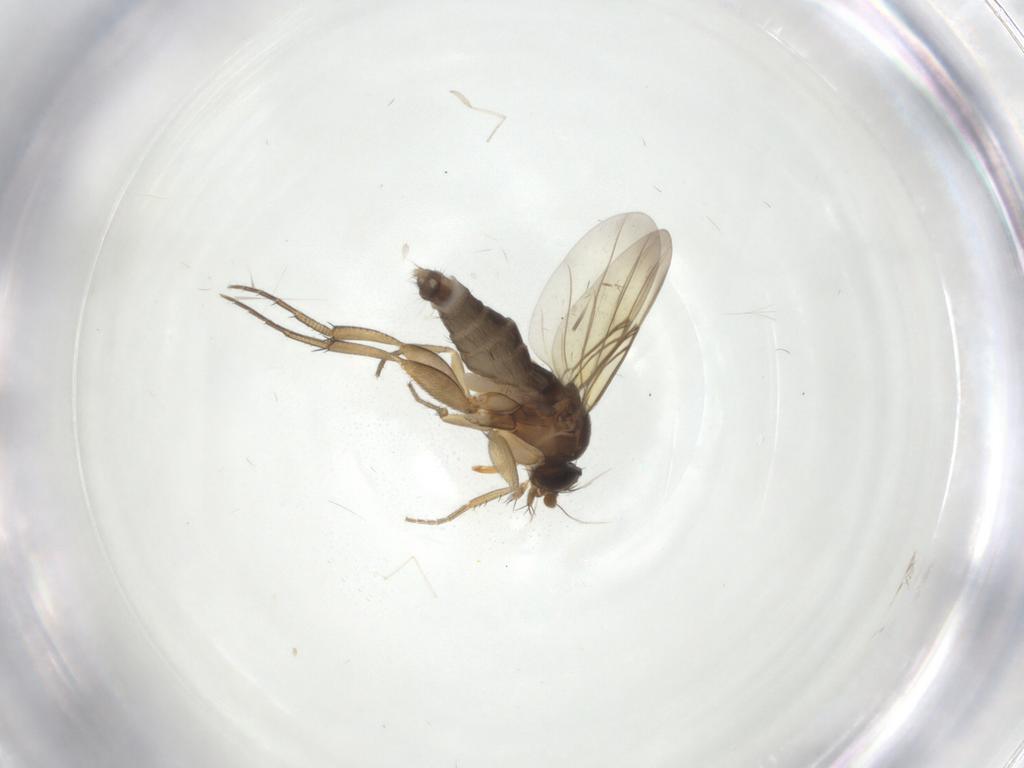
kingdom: Animalia
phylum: Arthropoda
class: Insecta
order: Diptera
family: Phoridae
